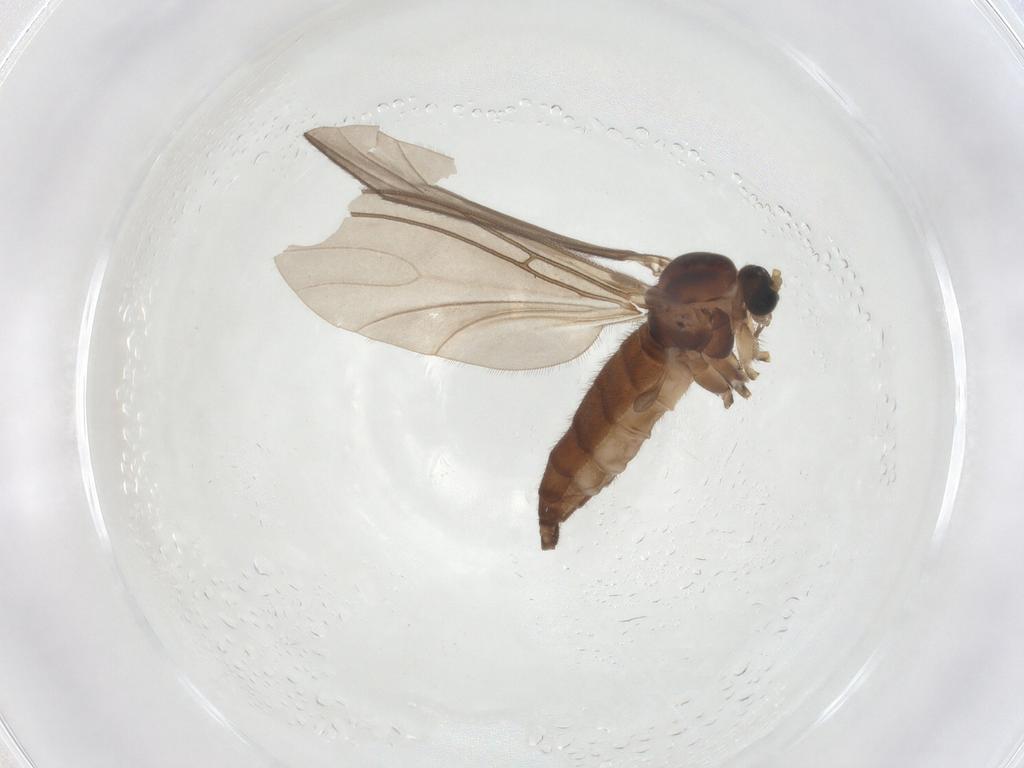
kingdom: Animalia
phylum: Arthropoda
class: Insecta
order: Diptera
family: Sciaridae
